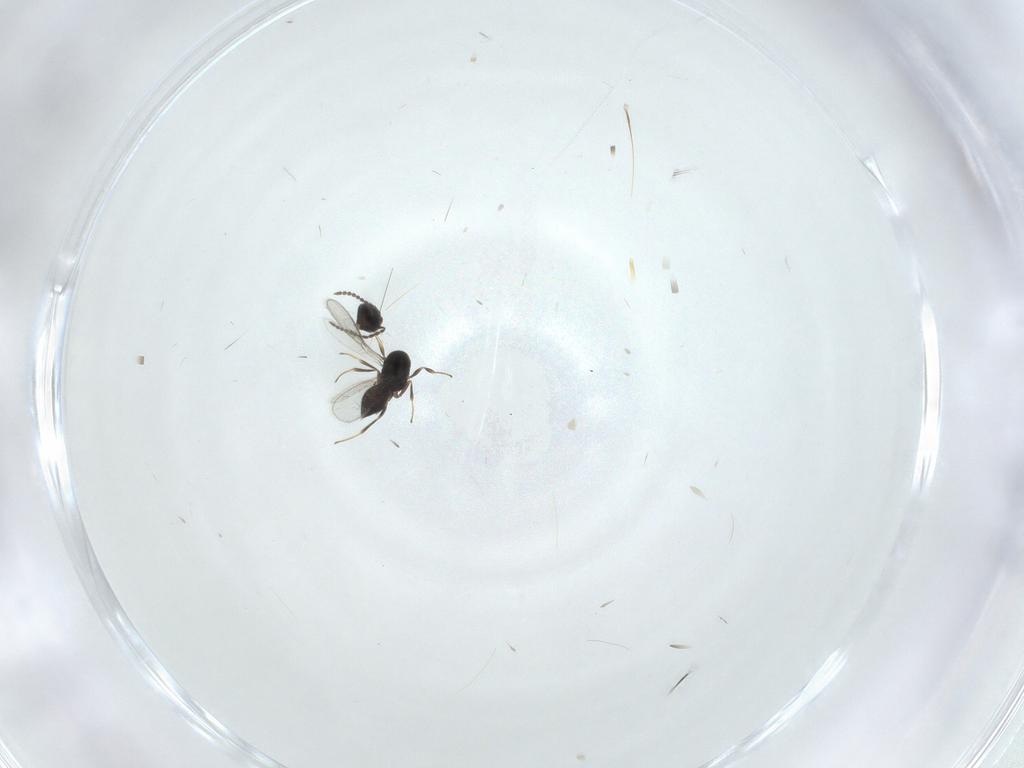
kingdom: Animalia
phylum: Arthropoda
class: Insecta
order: Hymenoptera
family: Scelionidae
